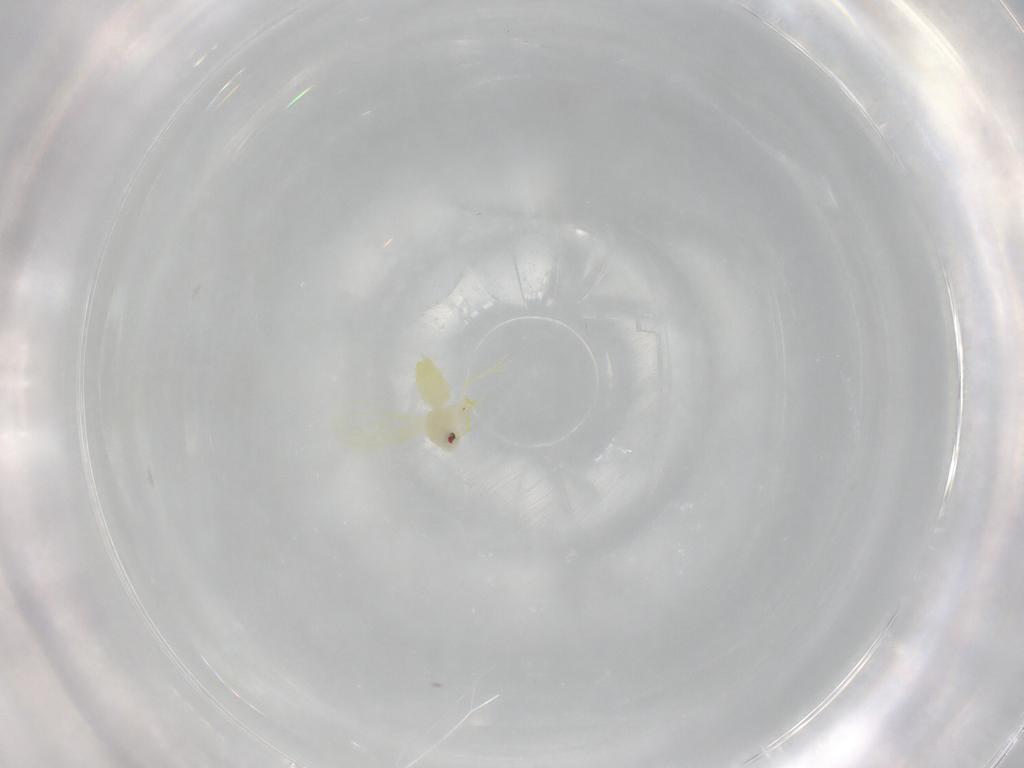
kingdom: Animalia
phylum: Arthropoda
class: Insecta
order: Hemiptera
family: Aleyrodidae
